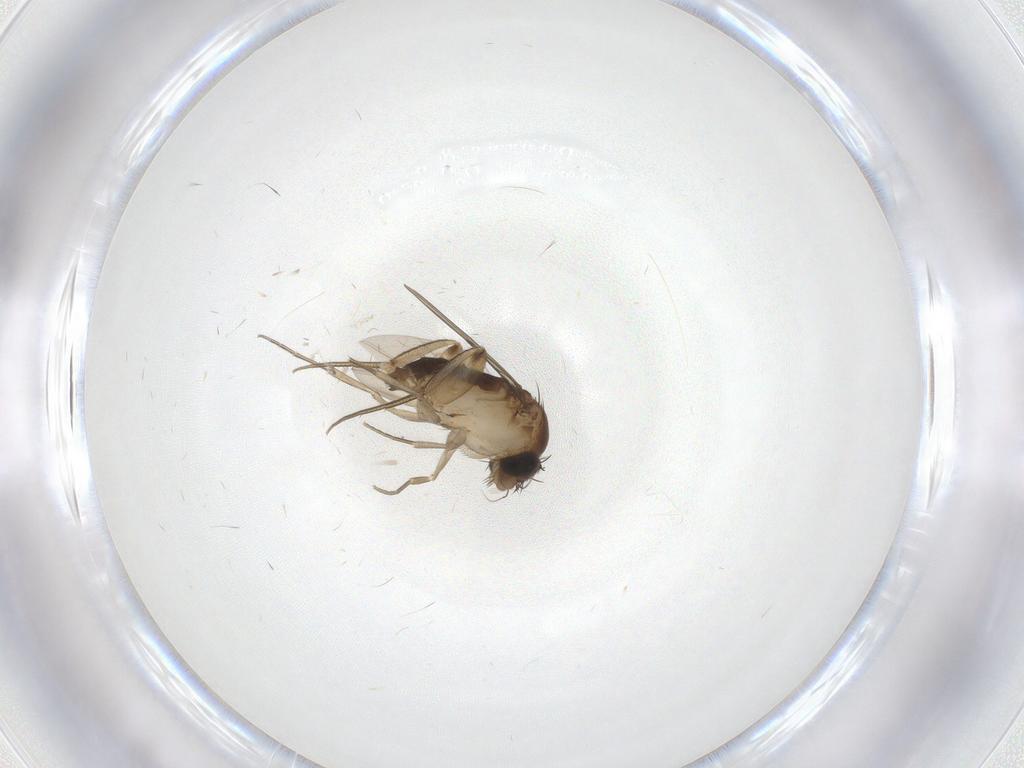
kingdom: Animalia
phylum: Arthropoda
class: Insecta
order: Diptera
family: Phoridae
